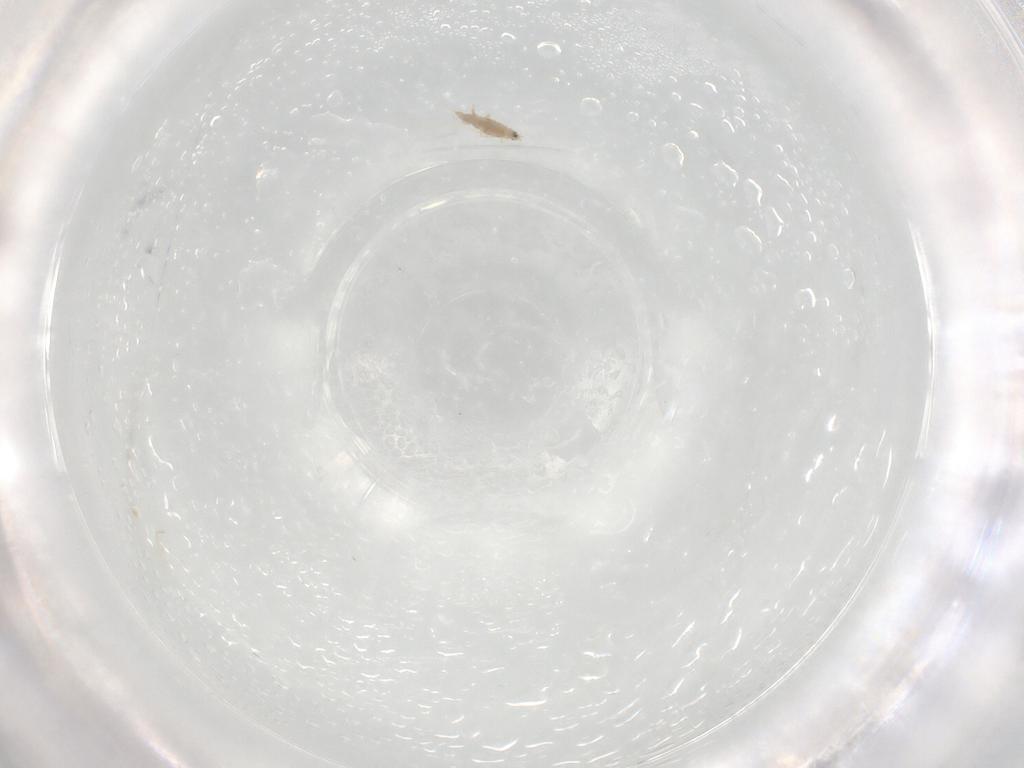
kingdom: Animalia
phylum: Arthropoda
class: Insecta
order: Hemiptera
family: Coccoidea_incertae_sedis
